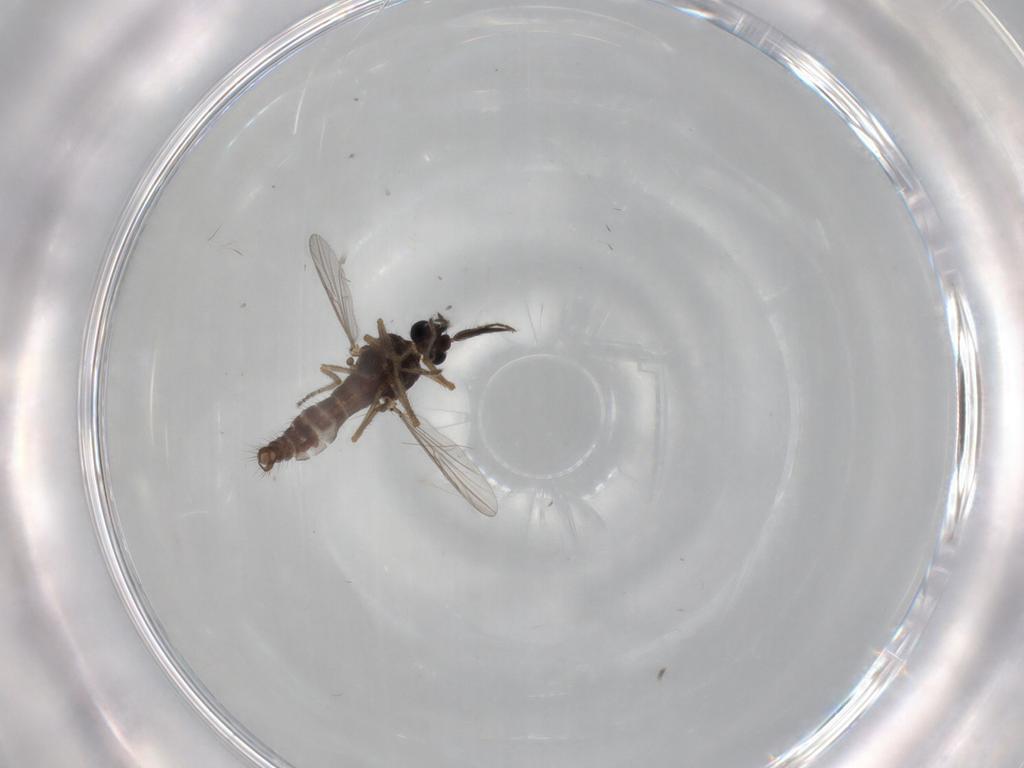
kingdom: Animalia
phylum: Arthropoda
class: Insecta
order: Diptera
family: Ceratopogonidae
